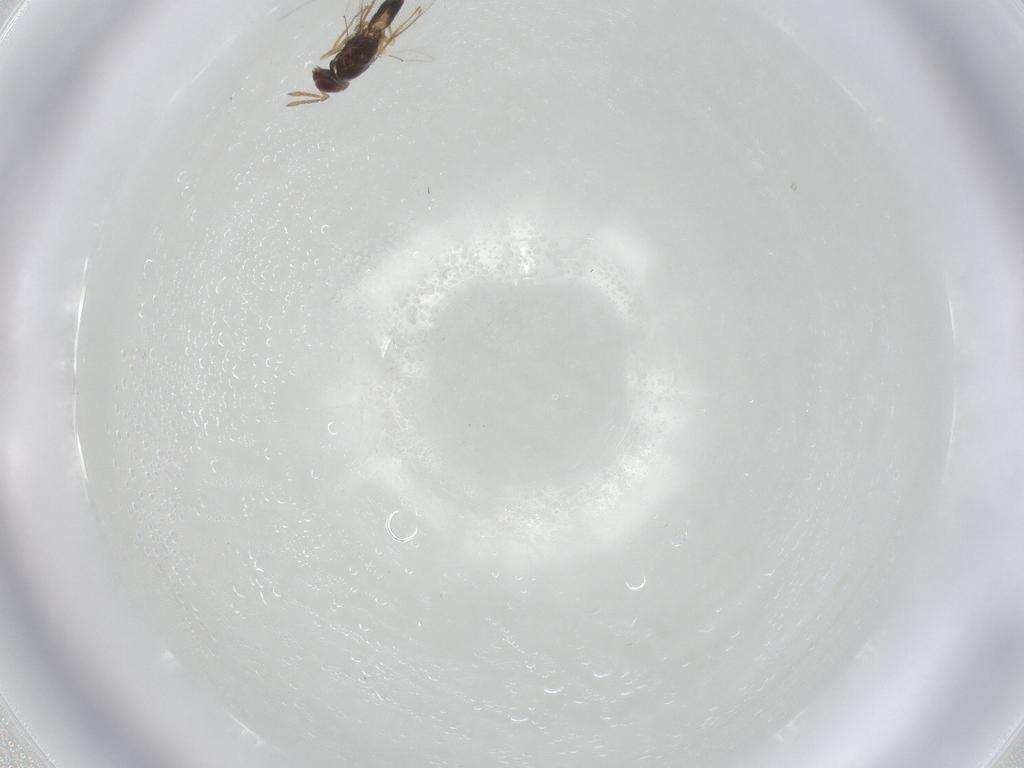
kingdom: Animalia
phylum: Arthropoda
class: Insecta
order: Hymenoptera
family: Eulophidae
